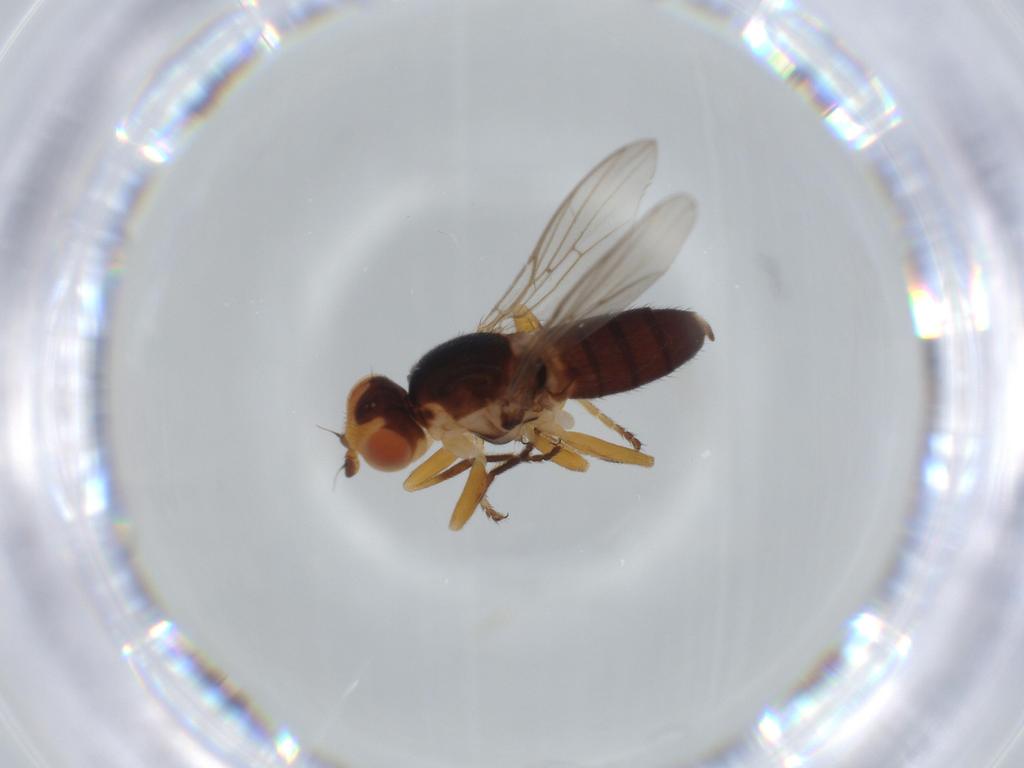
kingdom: Animalia
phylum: Arthropoda
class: Insecta
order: Diptera
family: Chloropidae
